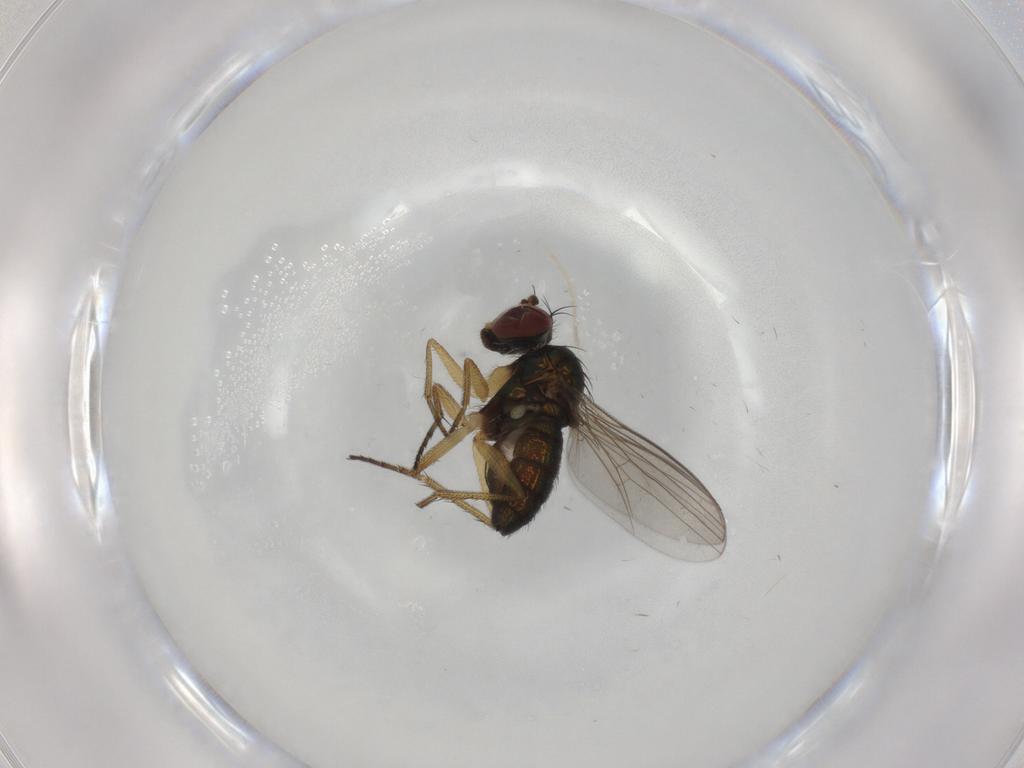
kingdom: Animalia
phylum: Arthropoda
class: Insecta
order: Diptera
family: Dolichopodidae
